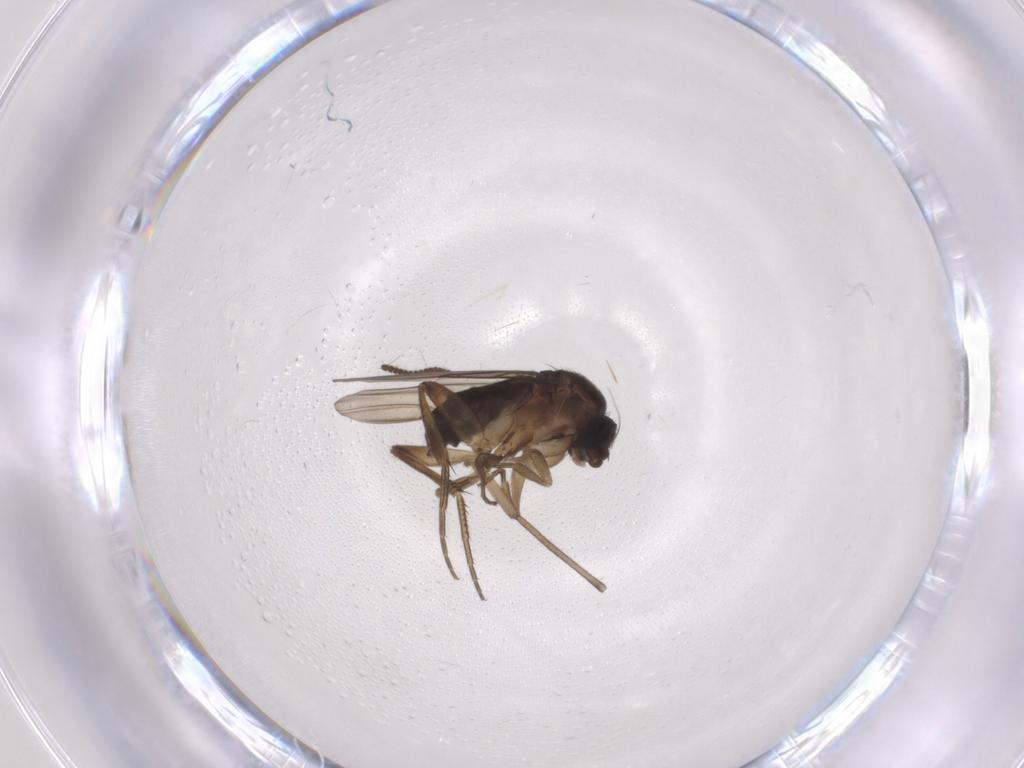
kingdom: Animalia
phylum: Arthropoda
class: Insecta
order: Diptera
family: Phoridae
